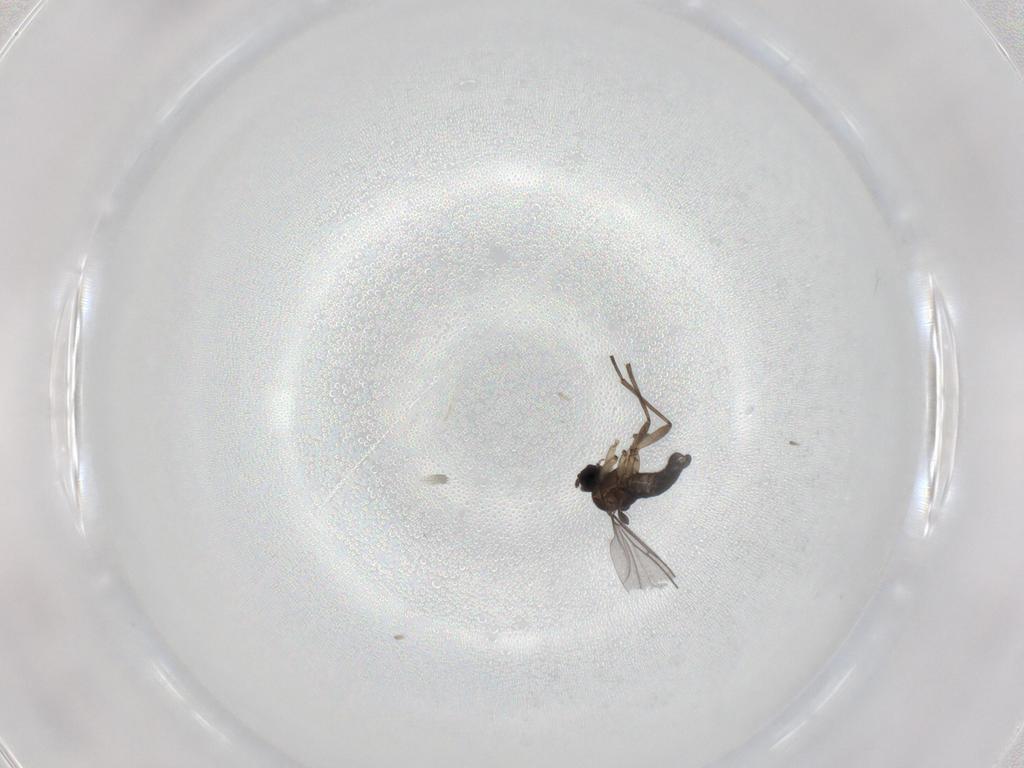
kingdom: Animalia
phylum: Arthropoda
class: Insecta
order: Diptera
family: Sciaridae
